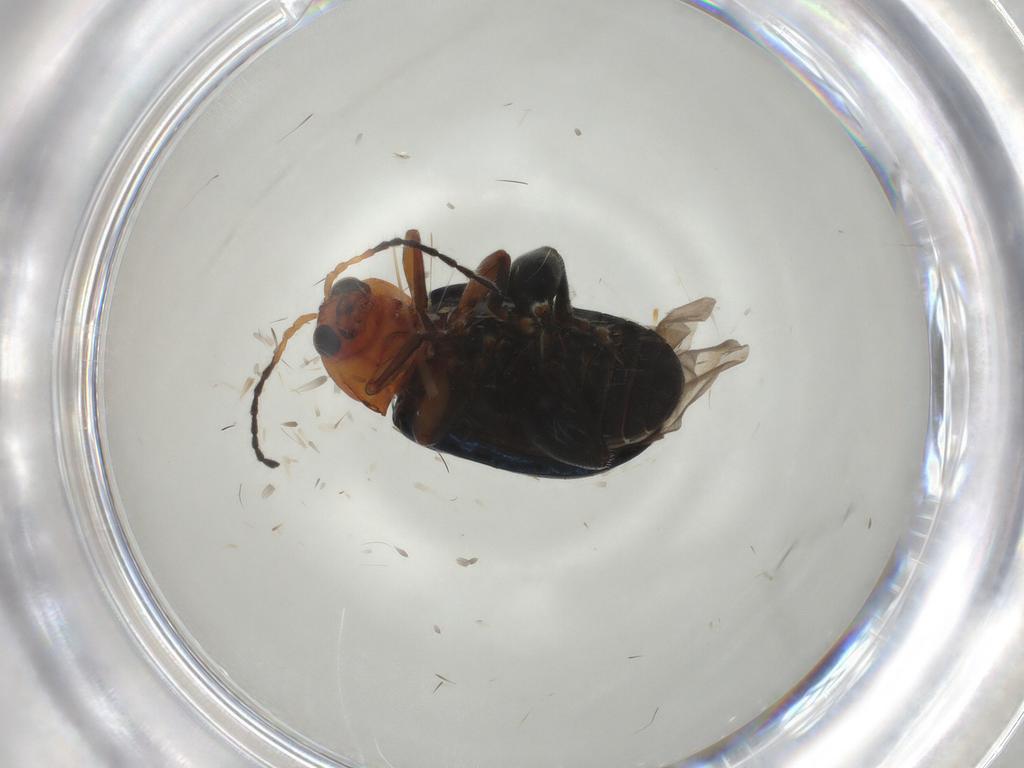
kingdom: Animalia
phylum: Arthropoda
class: Insecta
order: Coleoptera
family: Chrysomelidae
